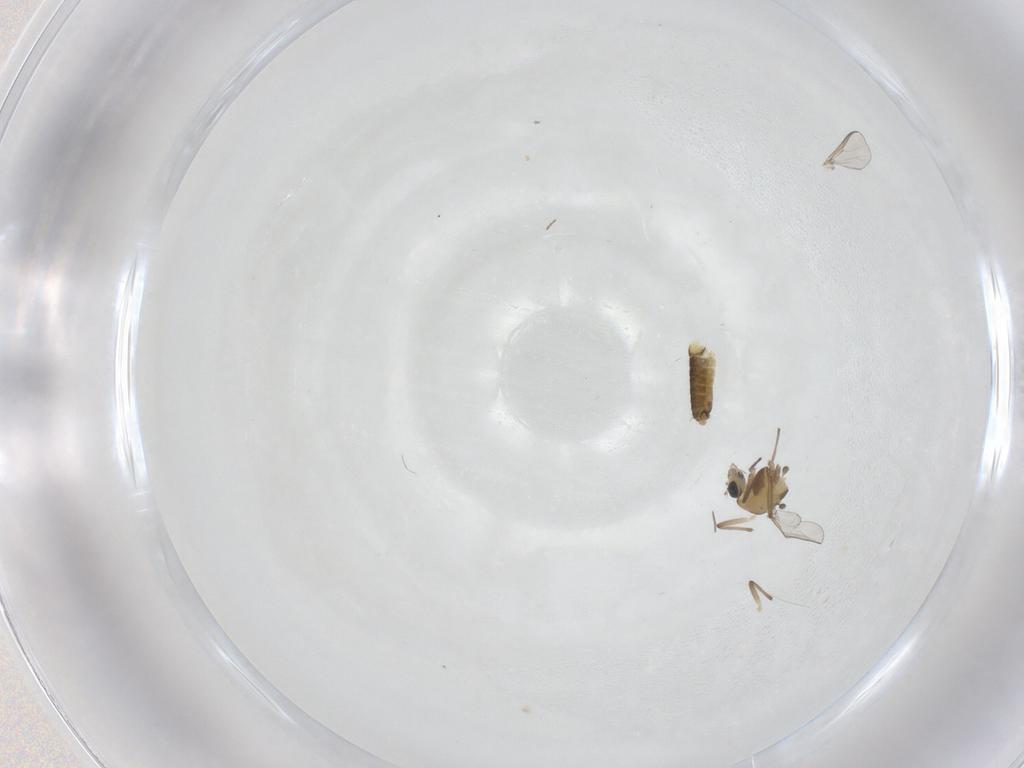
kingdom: Animalia
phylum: Arthropoda
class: Insecta
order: Diptera
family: Chironomidae
